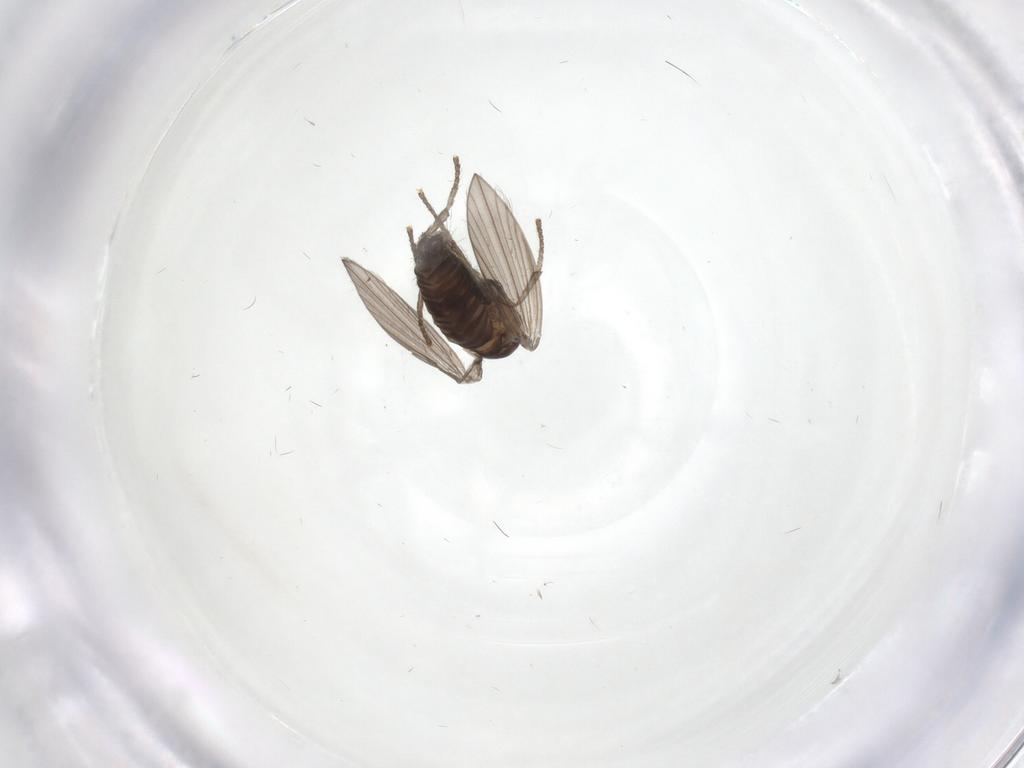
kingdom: Animalia
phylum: Arthropoda
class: Insecta
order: Diptera
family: Psychodidae
